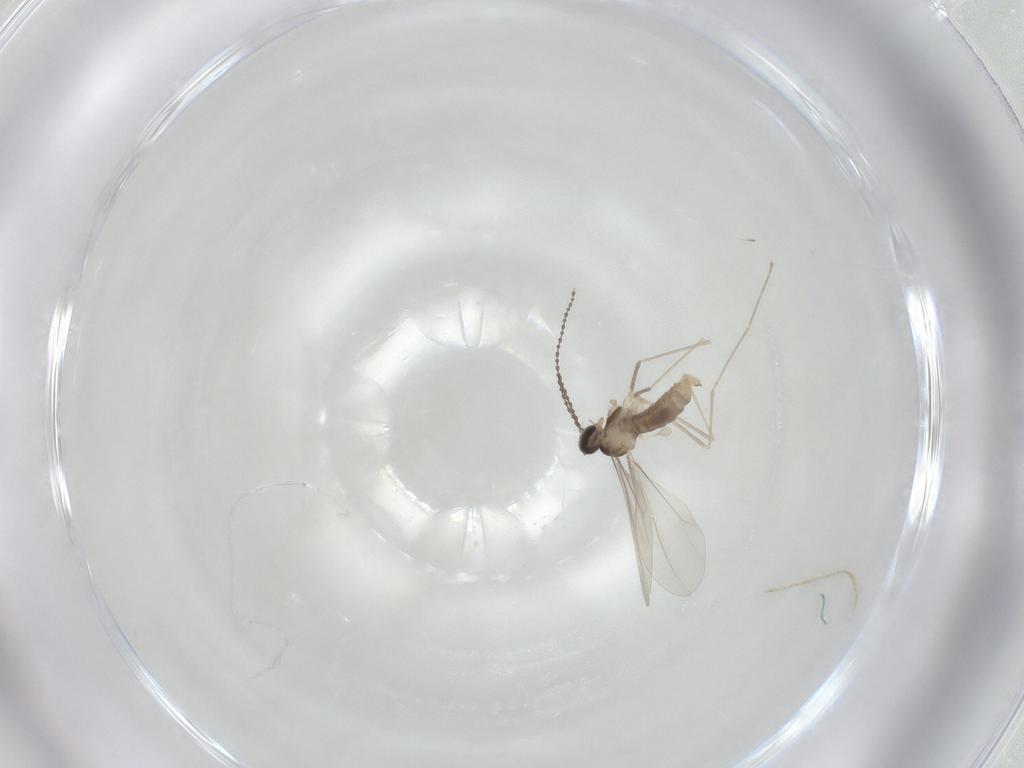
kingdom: Animalia
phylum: Arthropoda
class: Insecta
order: Diptera
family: Cecidomyiidae
